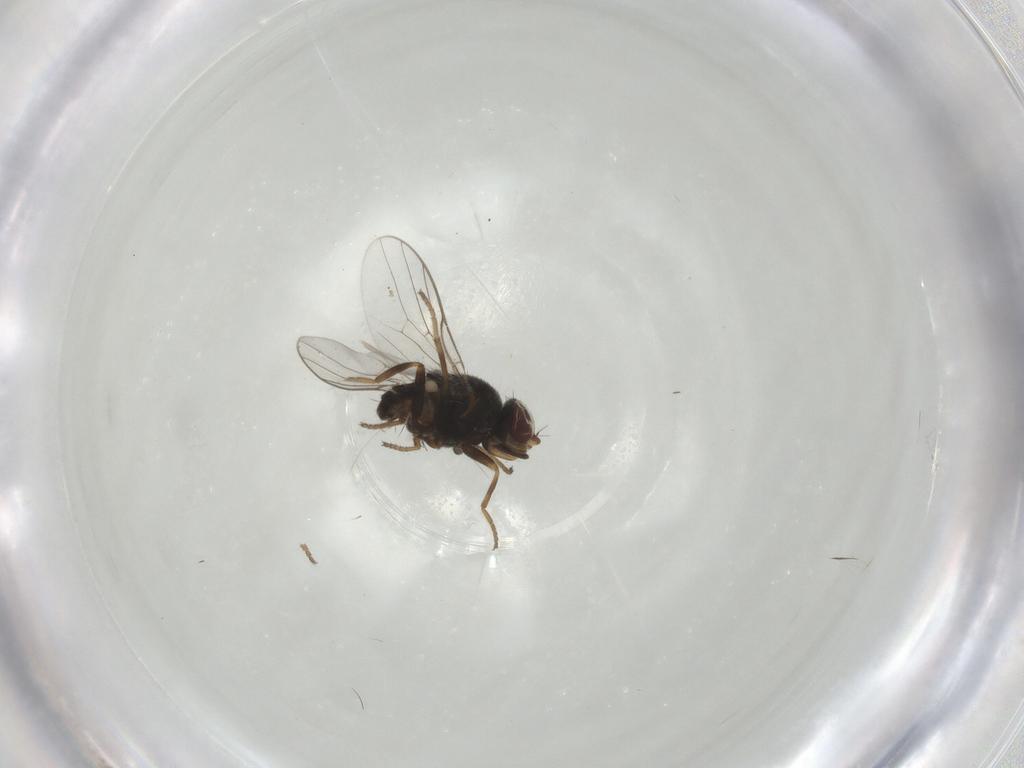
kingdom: Animalia
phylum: Arthropoda
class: Insecta
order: Diptera
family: Chloropidae
